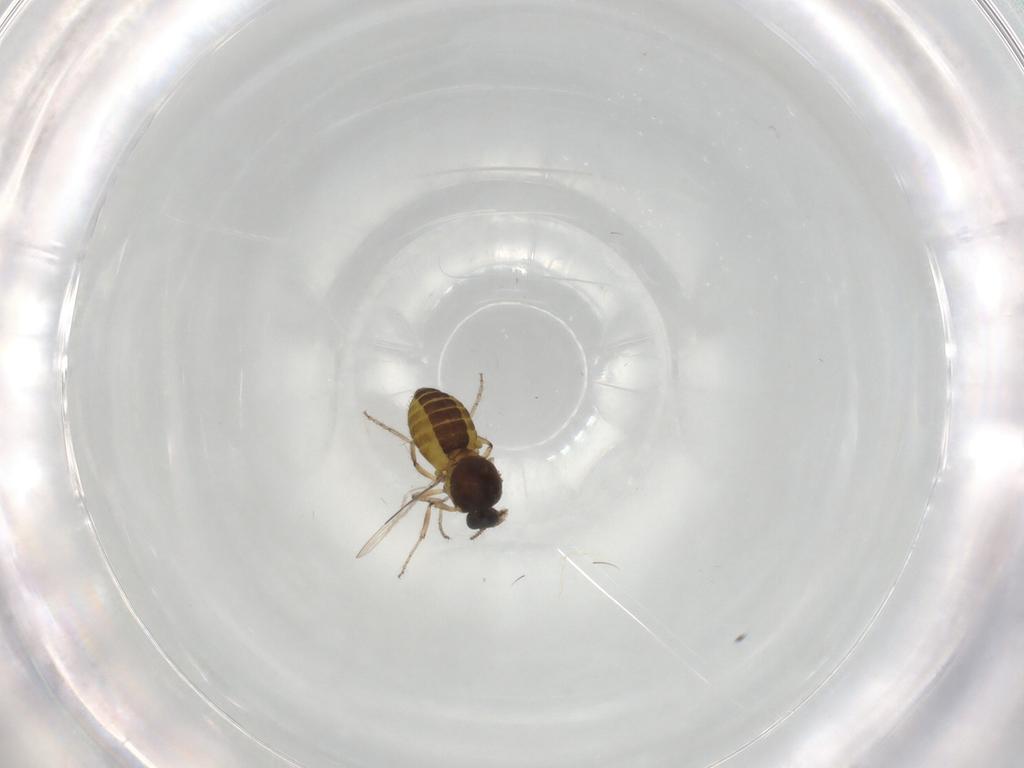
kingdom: Animalia
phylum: Arthropoda
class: Insecta
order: Diptera
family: Ceratopogonidae
